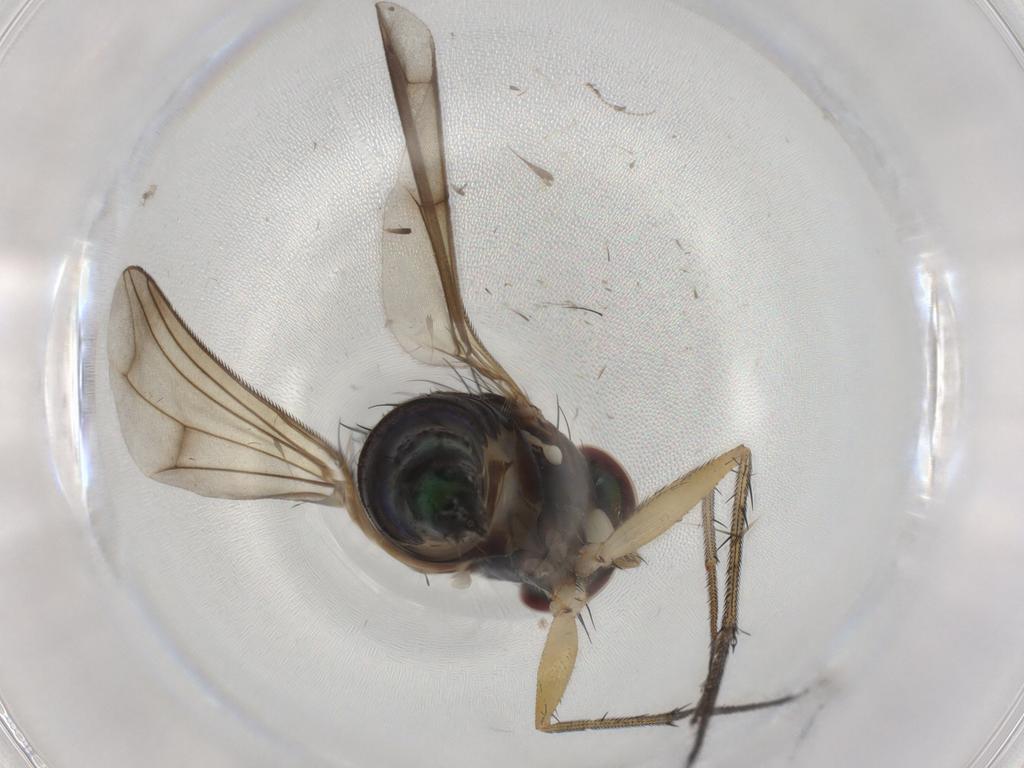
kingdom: Animalia
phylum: Arthropoda
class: Insecta
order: Diptera
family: Dolichopodidae
